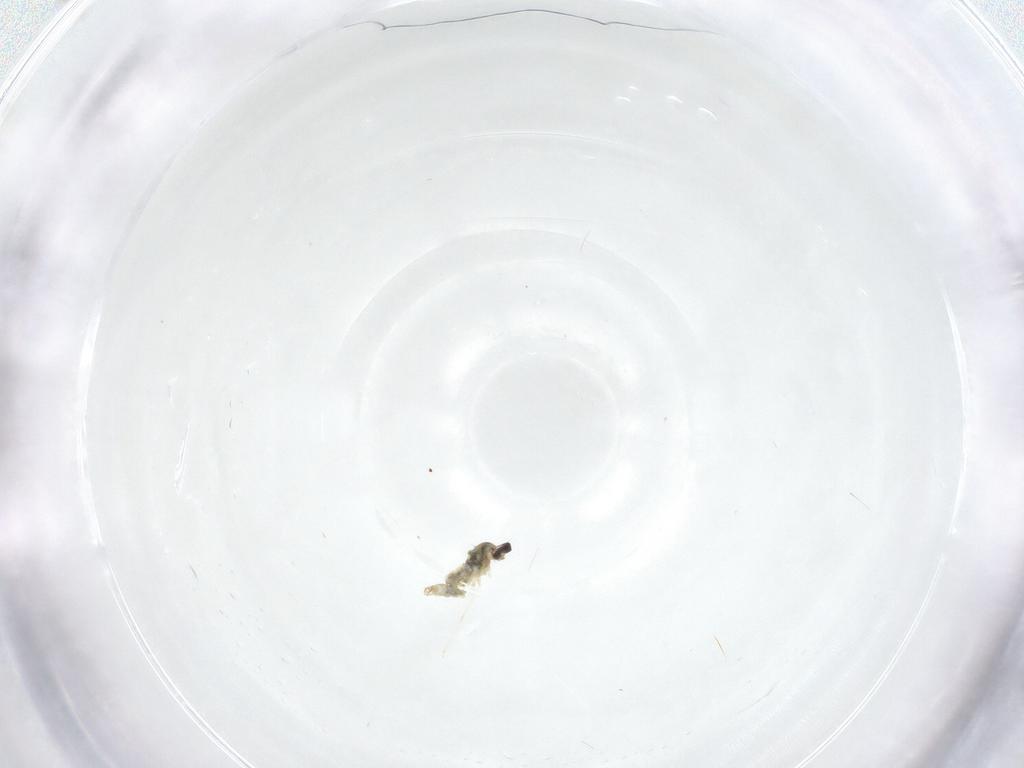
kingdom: Animalia
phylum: Arthropoda
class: Insecta
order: Diptera
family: Cecidomyiidae
